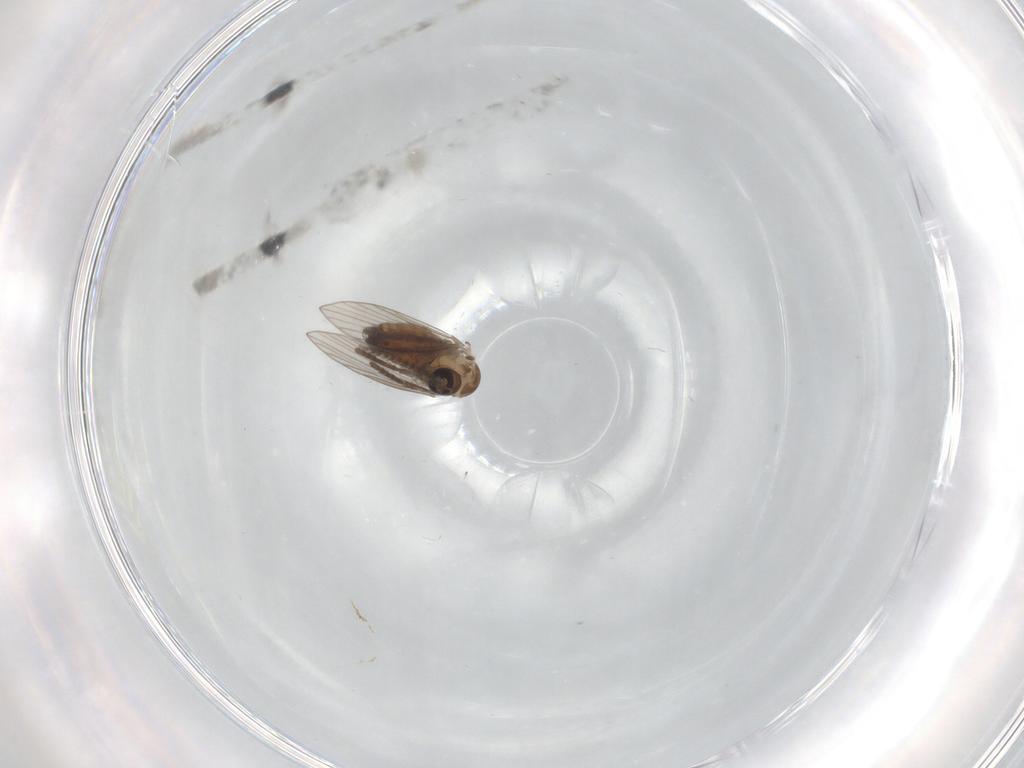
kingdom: Animalia
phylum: Arthropoda
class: Insecta
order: Diptera
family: Psychodidae
